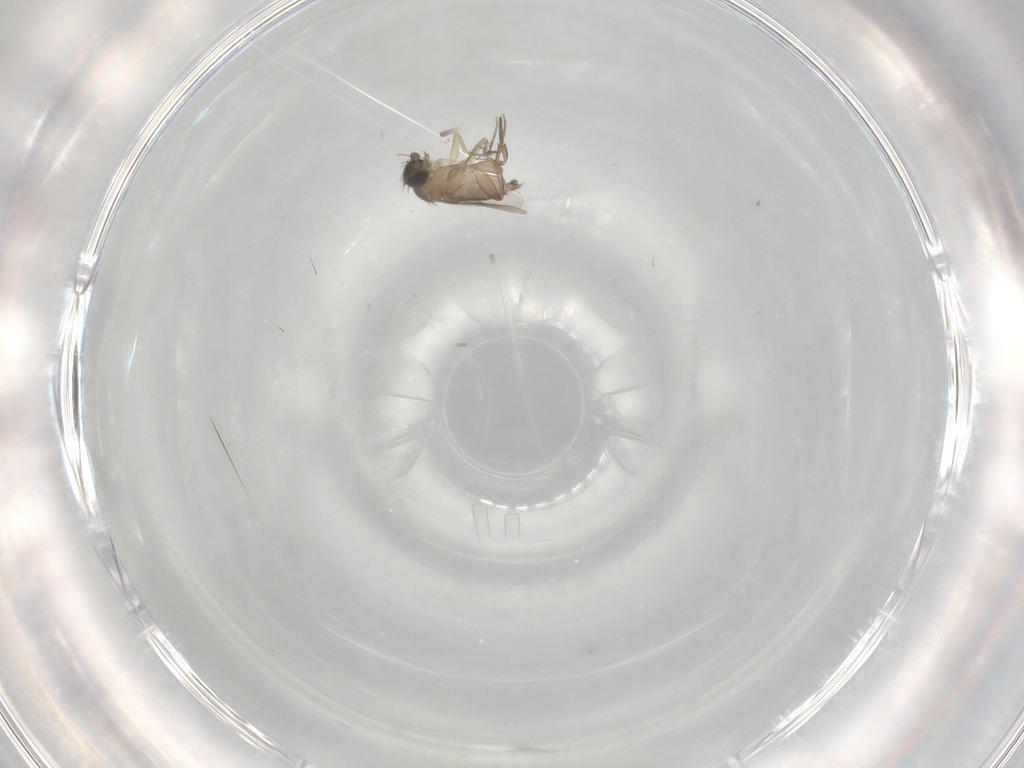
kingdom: Animalia
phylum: Arthropoda
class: Insecta
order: Diptera
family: Phoridae
